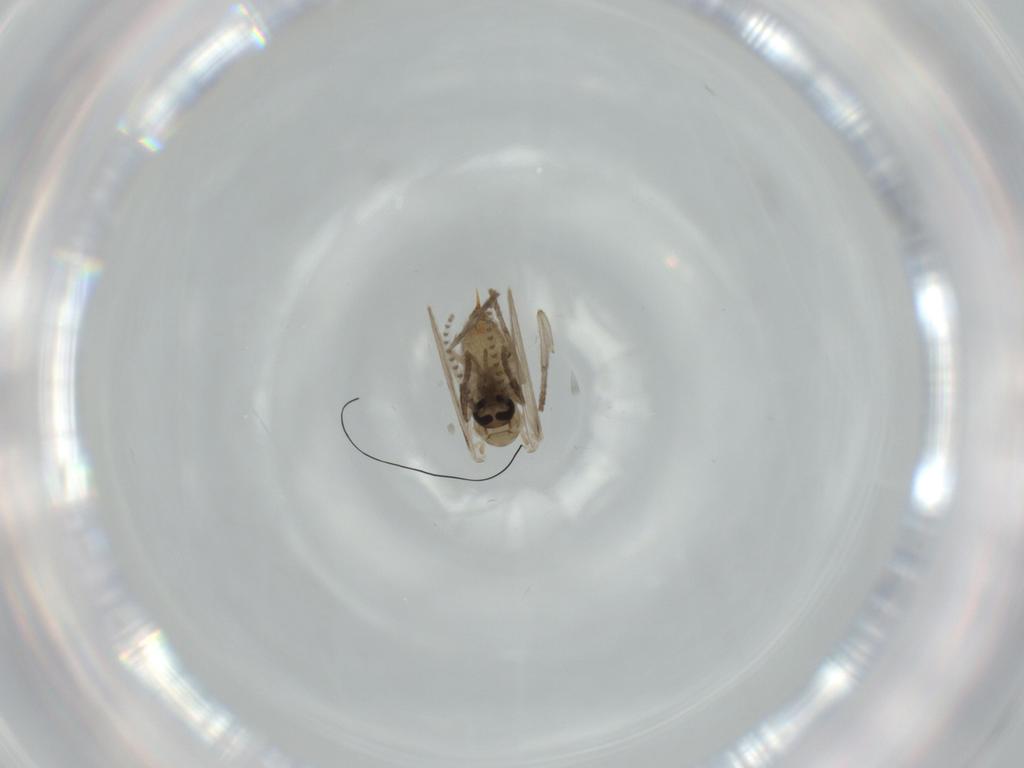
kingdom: Animalia
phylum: Arthropoda
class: Insecta
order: Diptera
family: Psychodidae
